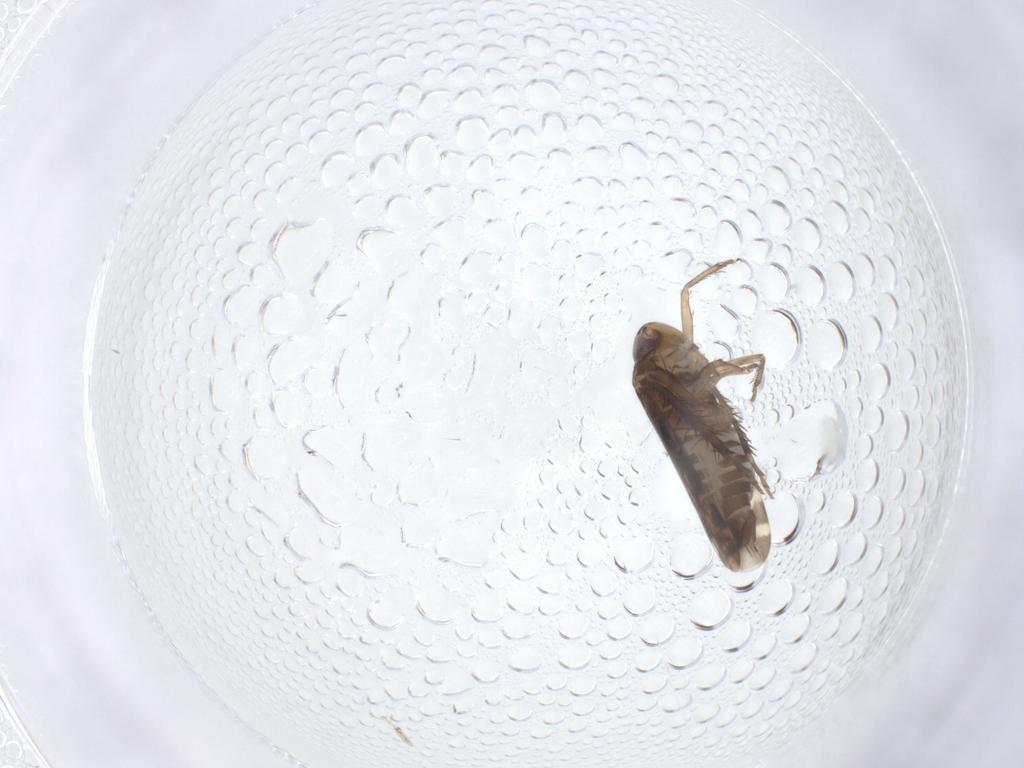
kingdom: Animalia
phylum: Arthropoda
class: Insecta
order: Hemiptera
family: Cicadellidae
